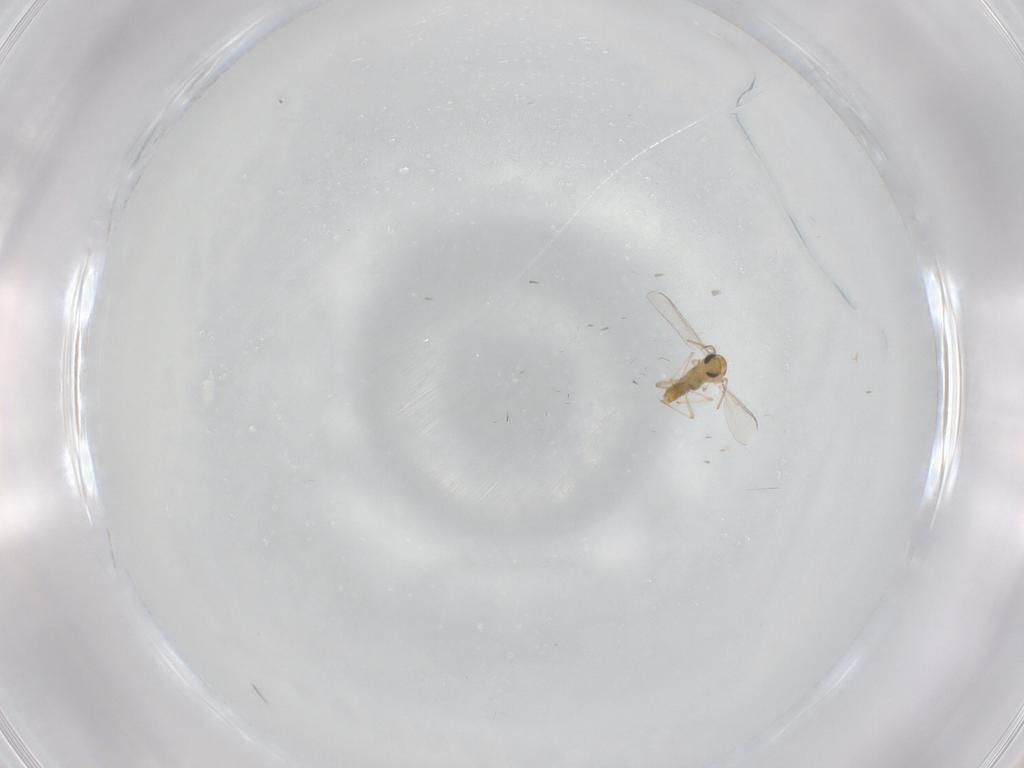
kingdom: Animalia
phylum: Arthropoda
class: Insecta
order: Diptera
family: Chironomidae
